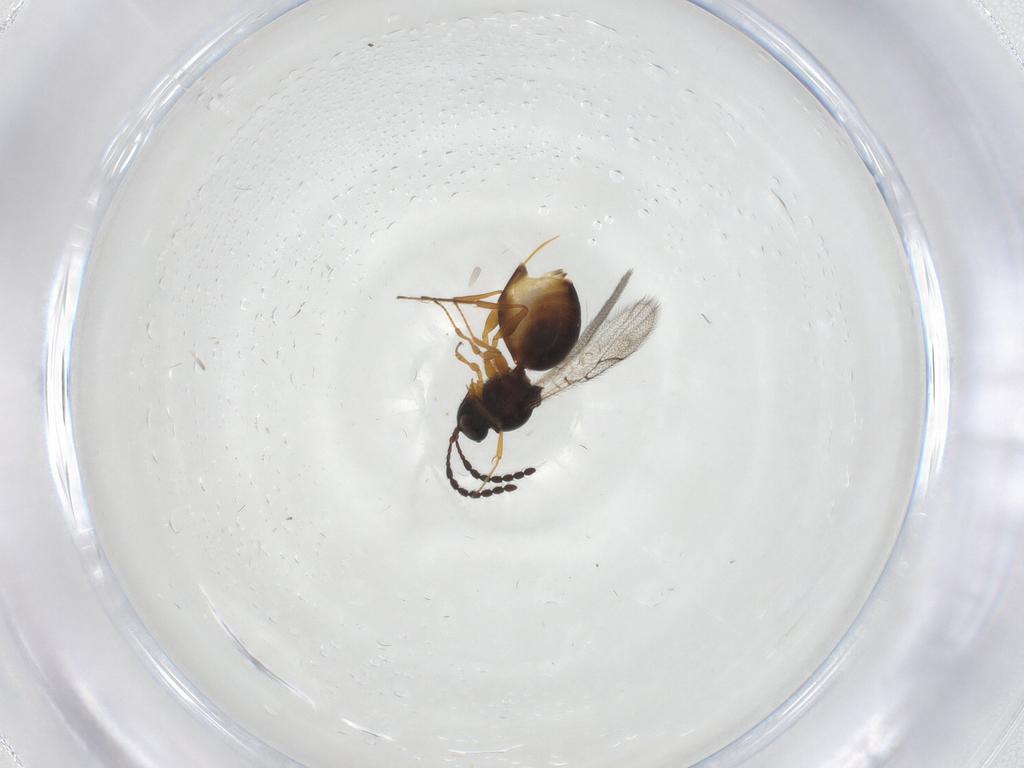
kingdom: Animalia
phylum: Arthropoda
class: Insecta
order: Hymenoptera
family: Figitidae
